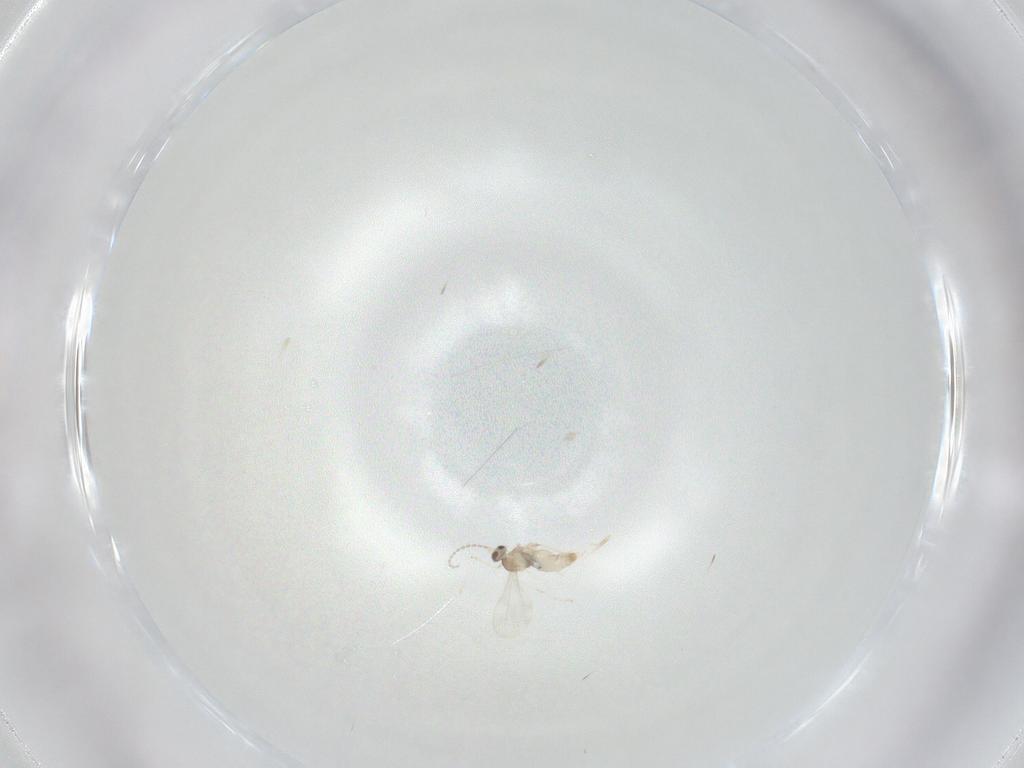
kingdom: Animalia
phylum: Arthropoda
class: Insecta
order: Diptera
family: Cecidomyiidae
